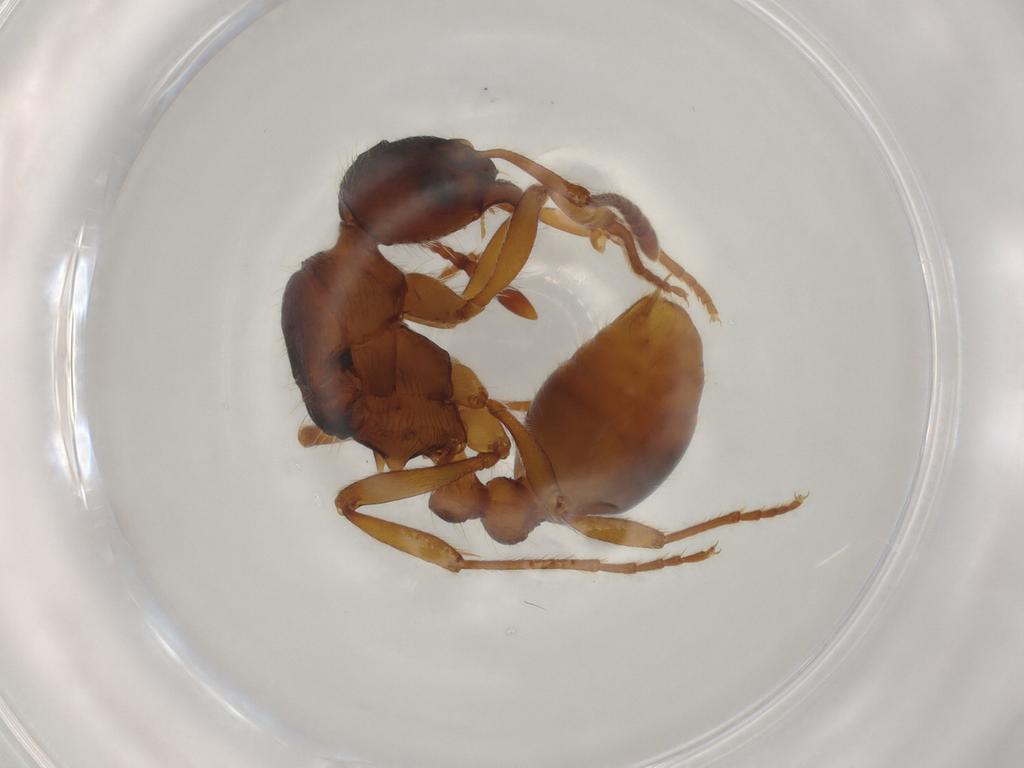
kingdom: Animalia
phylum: Arthropoda
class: Insecta
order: Hymenoptera
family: Formicidae
